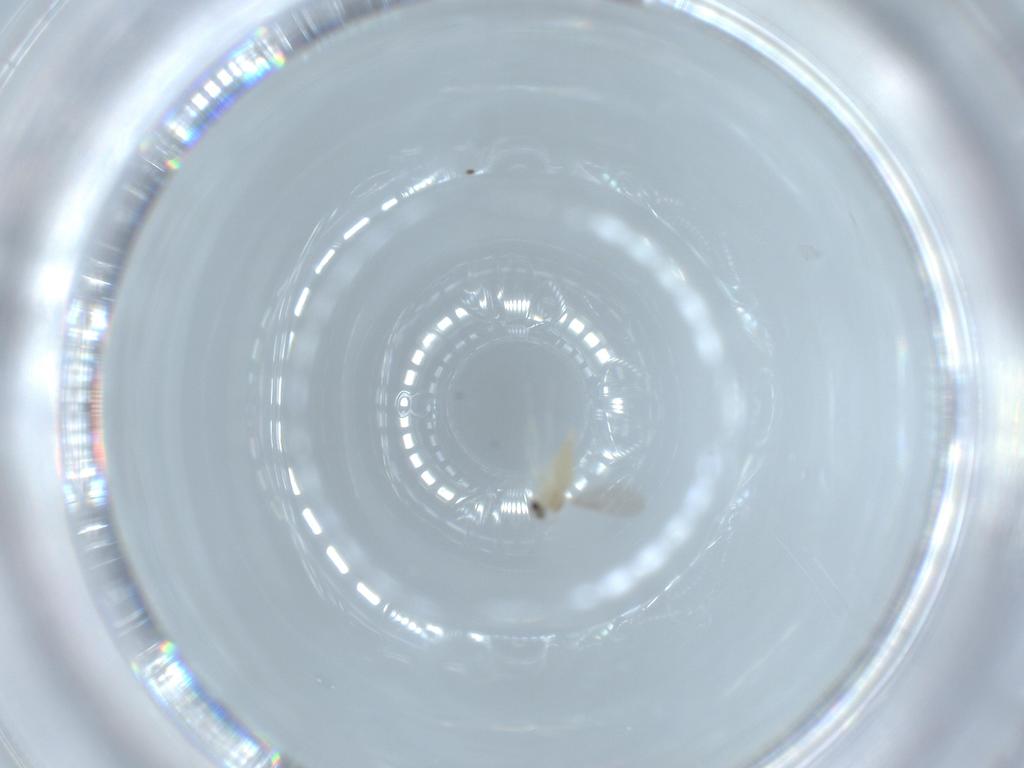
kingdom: Animalia
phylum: Arthropoda
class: Insecta
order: Diptera
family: Cecidomyiidae
